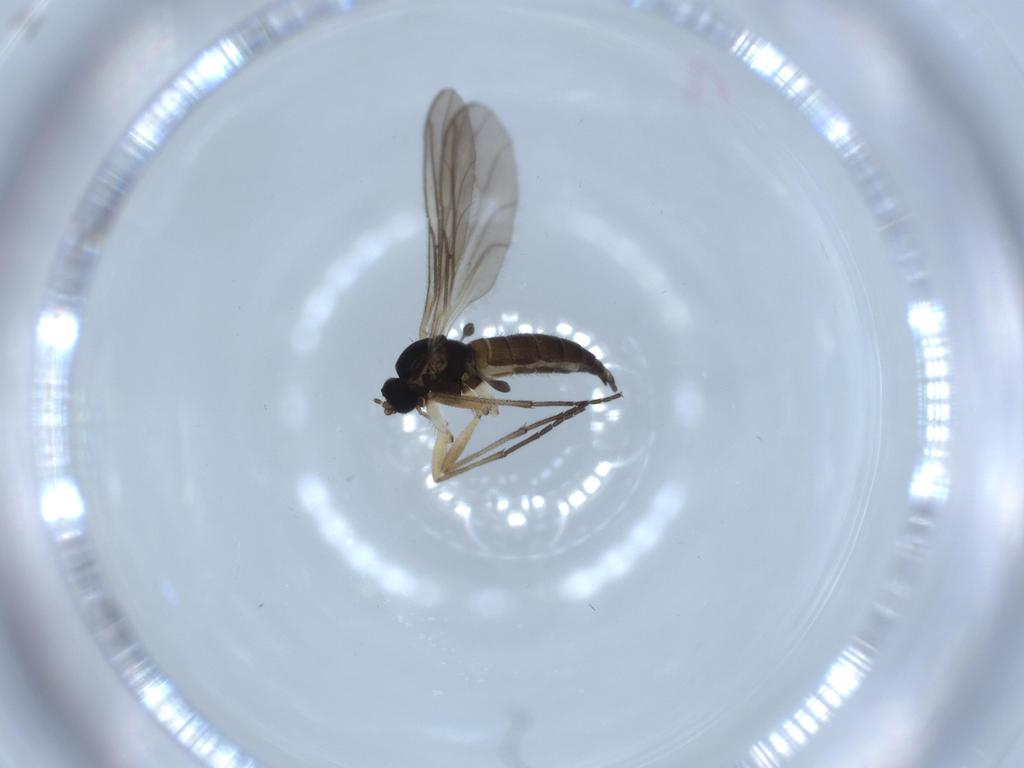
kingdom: Animalia
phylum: Arthropoda
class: Insecta
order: Diptera
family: Sciaridae
